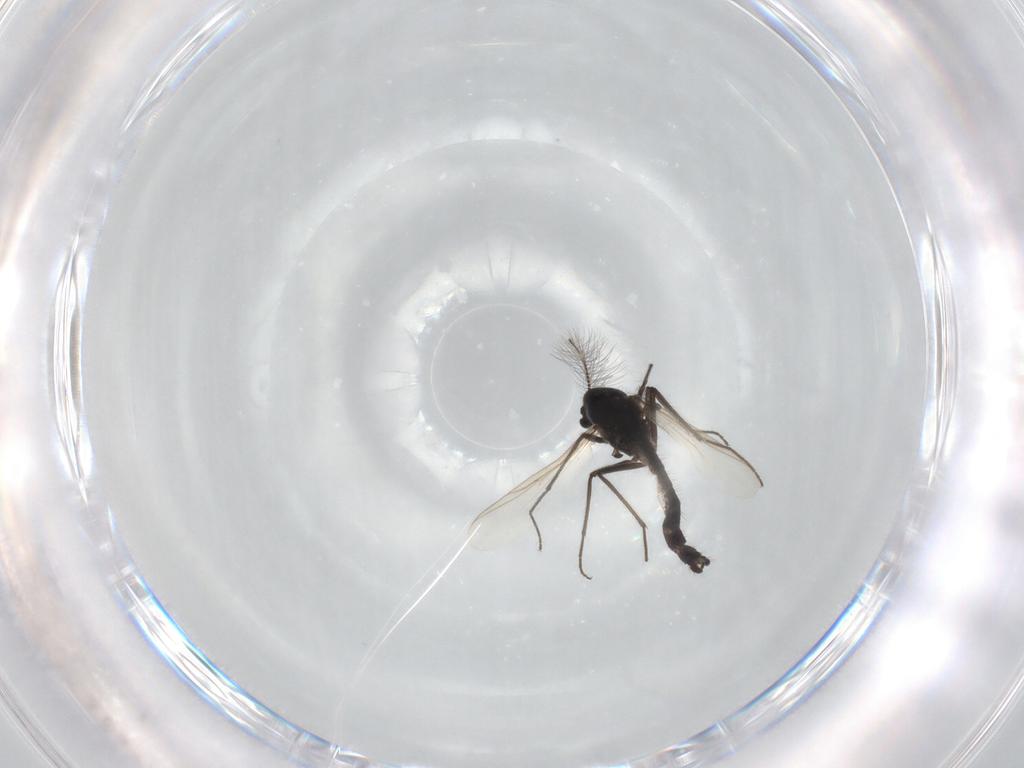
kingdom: Animalia
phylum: Arthropoda
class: Insecta
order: Diptera
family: Chironomidae
